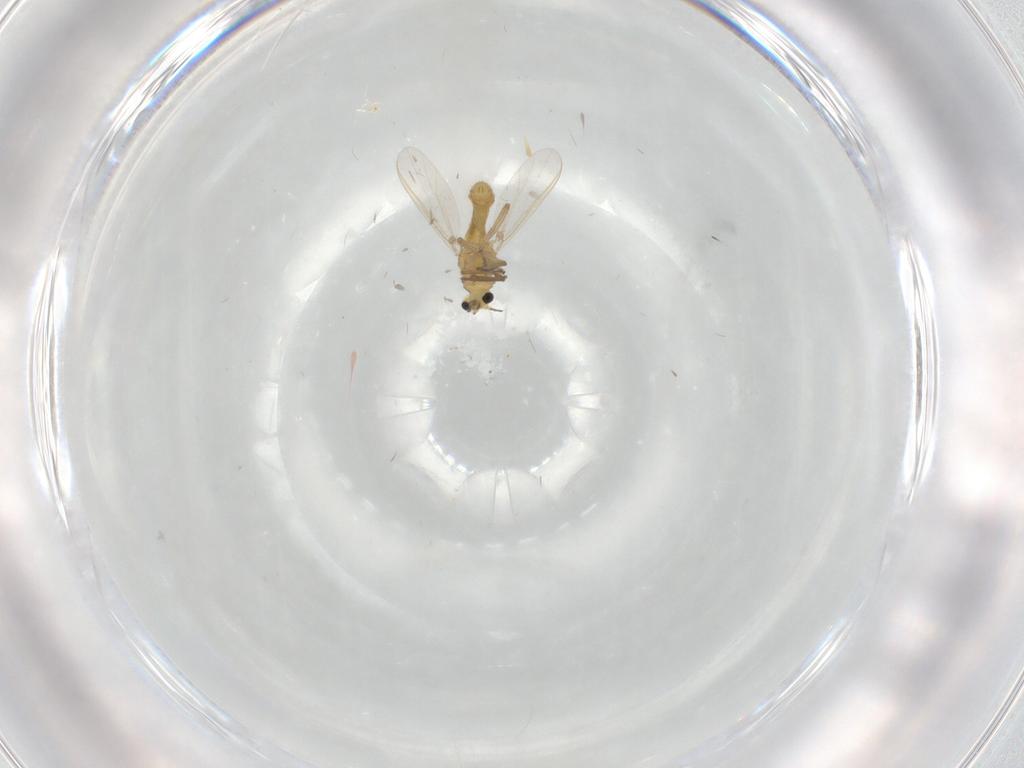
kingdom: Animalia
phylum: Arthropoda
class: Insecta
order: Diptera
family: Chironomidae
